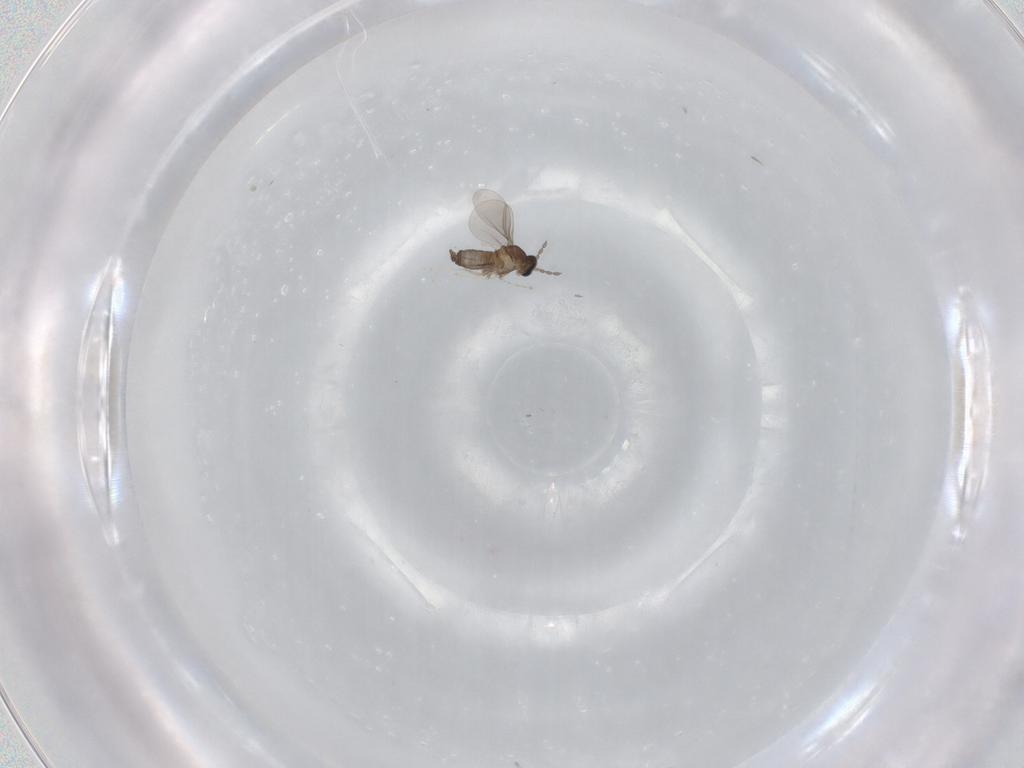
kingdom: Animalia
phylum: Arthropoda
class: Insecta
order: Diptera
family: Cecidomyiidae
